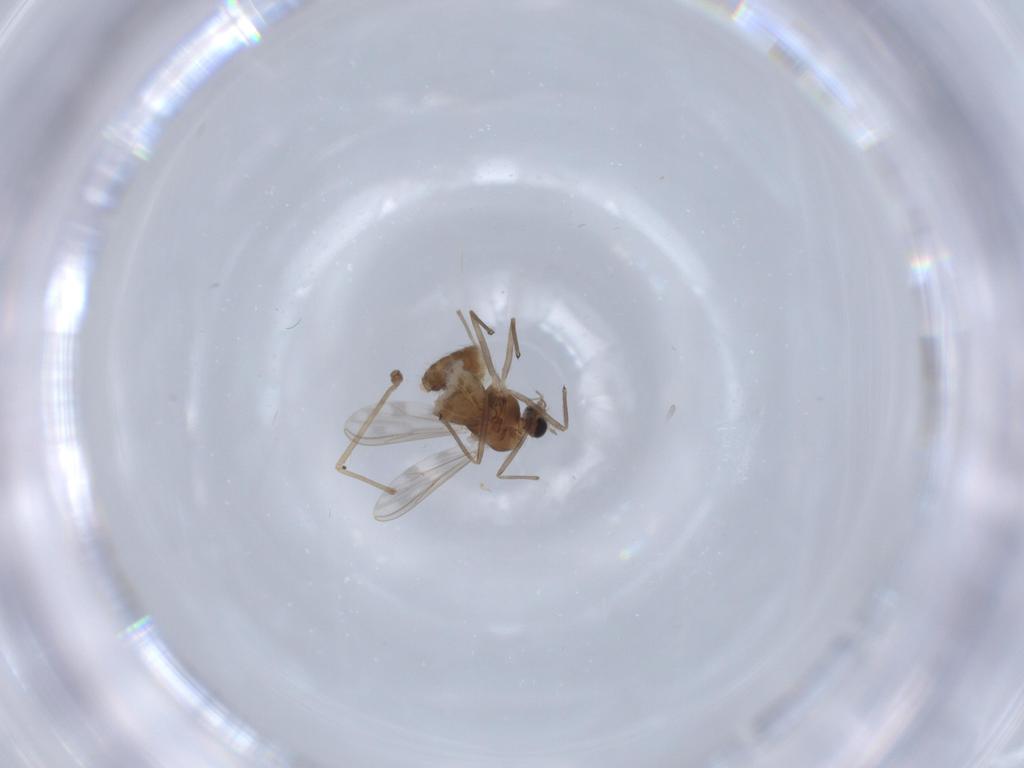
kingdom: Animalia
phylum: Arthropoda
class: Insecta
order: Diptera
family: Chironomidae
